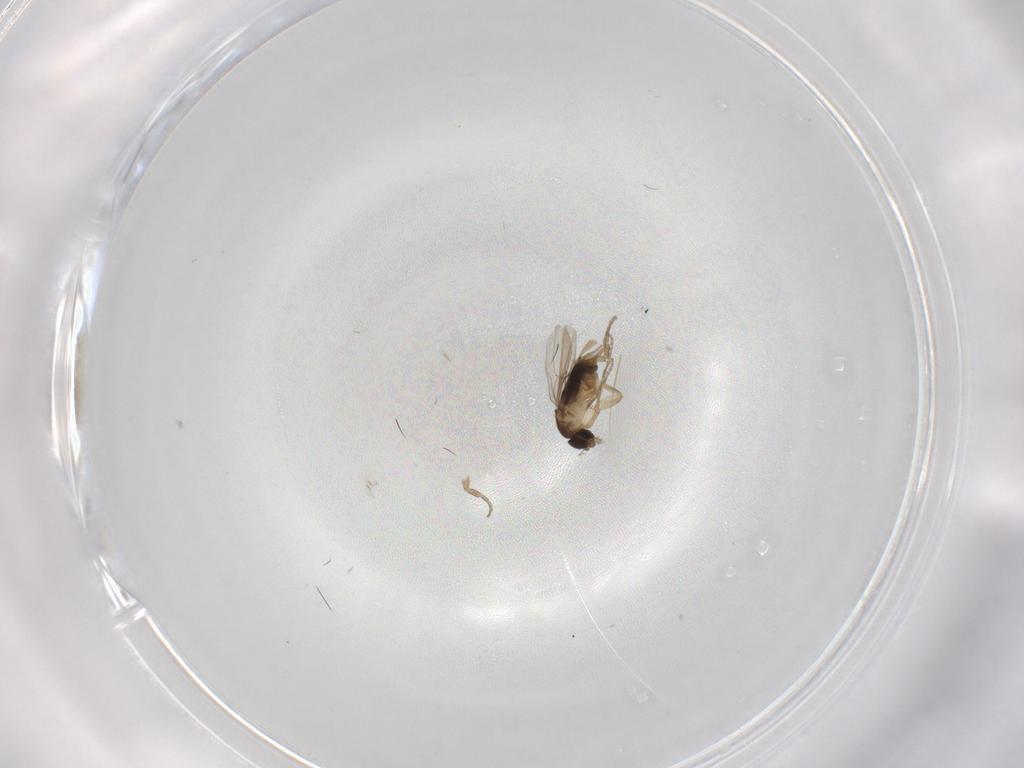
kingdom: Animalia
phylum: Arthropoda
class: Insecta
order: Diptera
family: Phoridae
